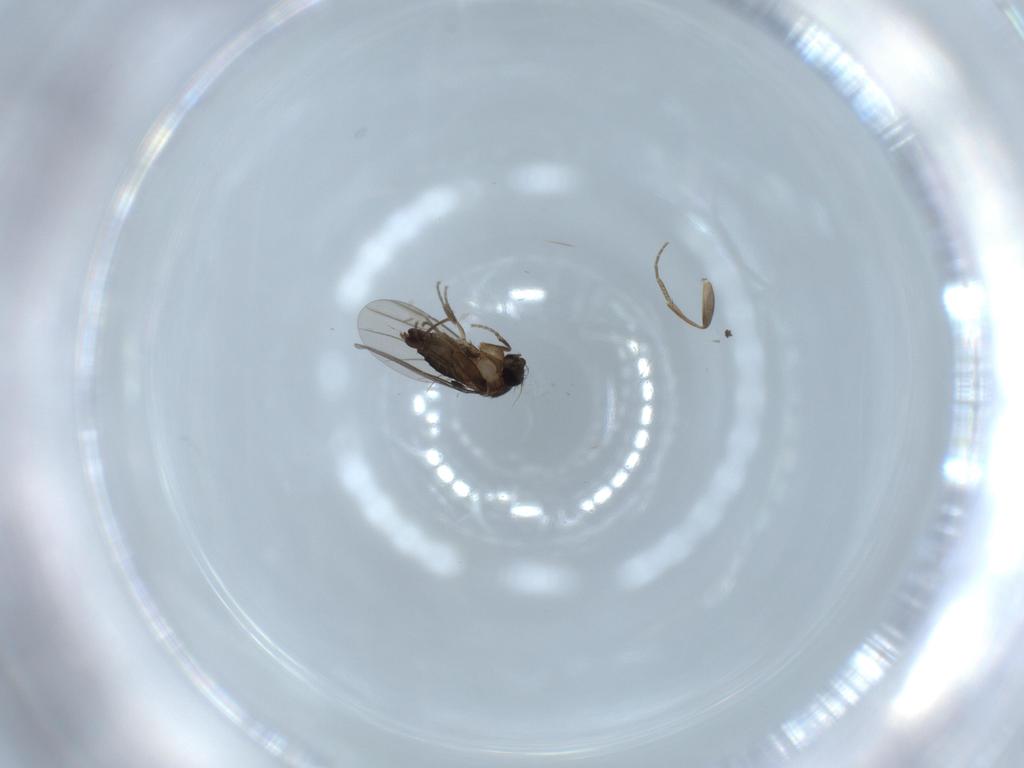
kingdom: Animalia
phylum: Arthropoda
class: Insecta
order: Diptera
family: Phoridae
